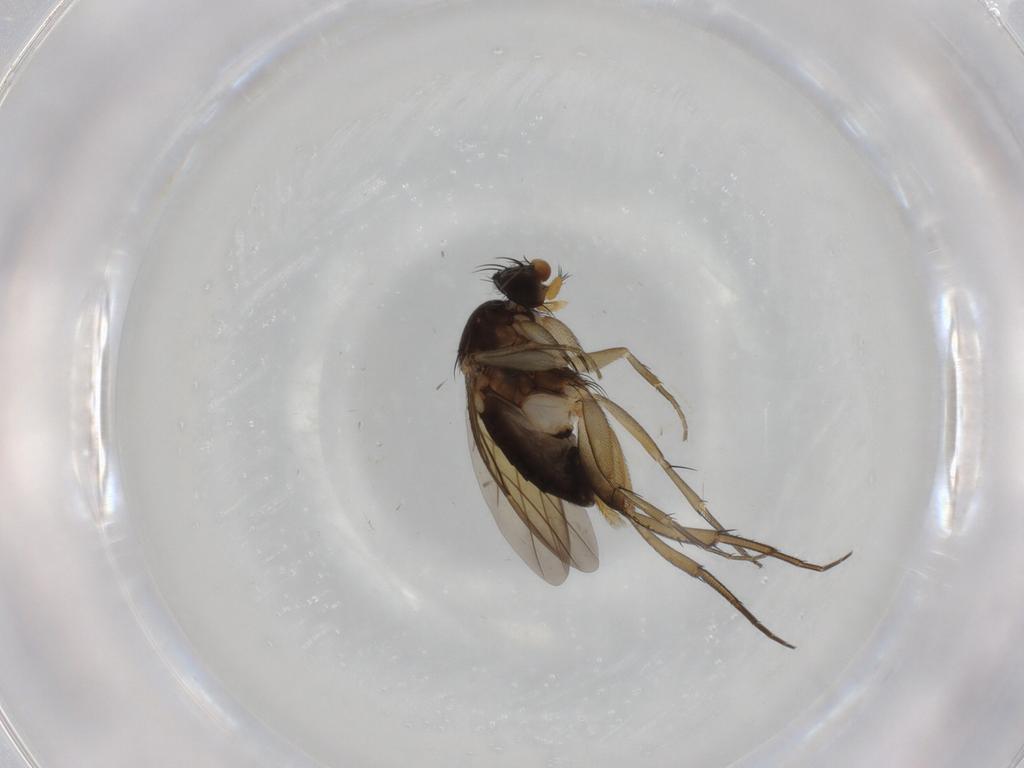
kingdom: Animalia
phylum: Arthropoda
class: Insecta
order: Diptera
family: Phoridae
